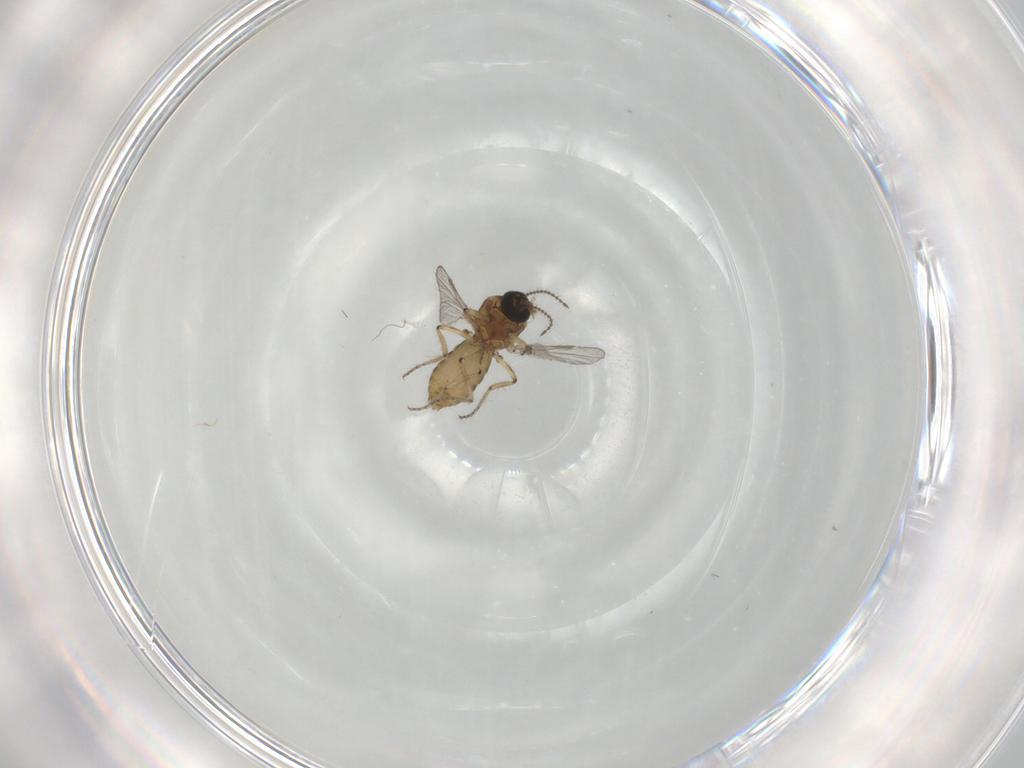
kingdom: Animalia
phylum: Arthropoda
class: Insecta
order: Diptera
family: Ceratopogonidae
